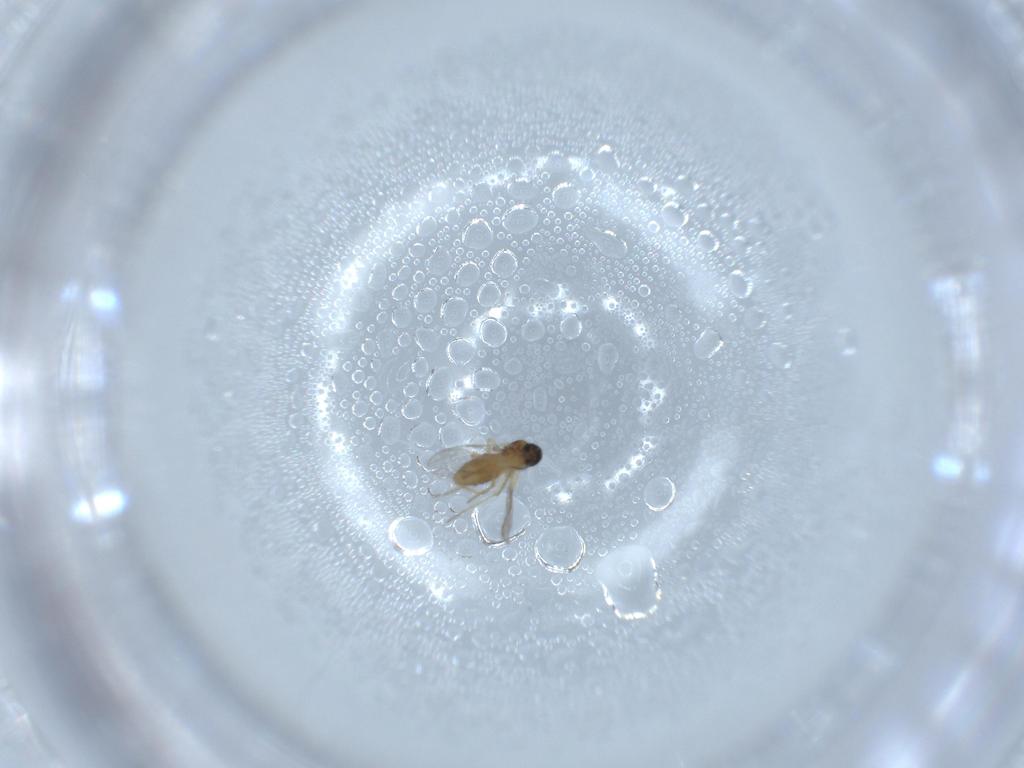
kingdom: Animalia
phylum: Arthropoda
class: Insecta
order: Diptera
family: Ceratopogonidae
